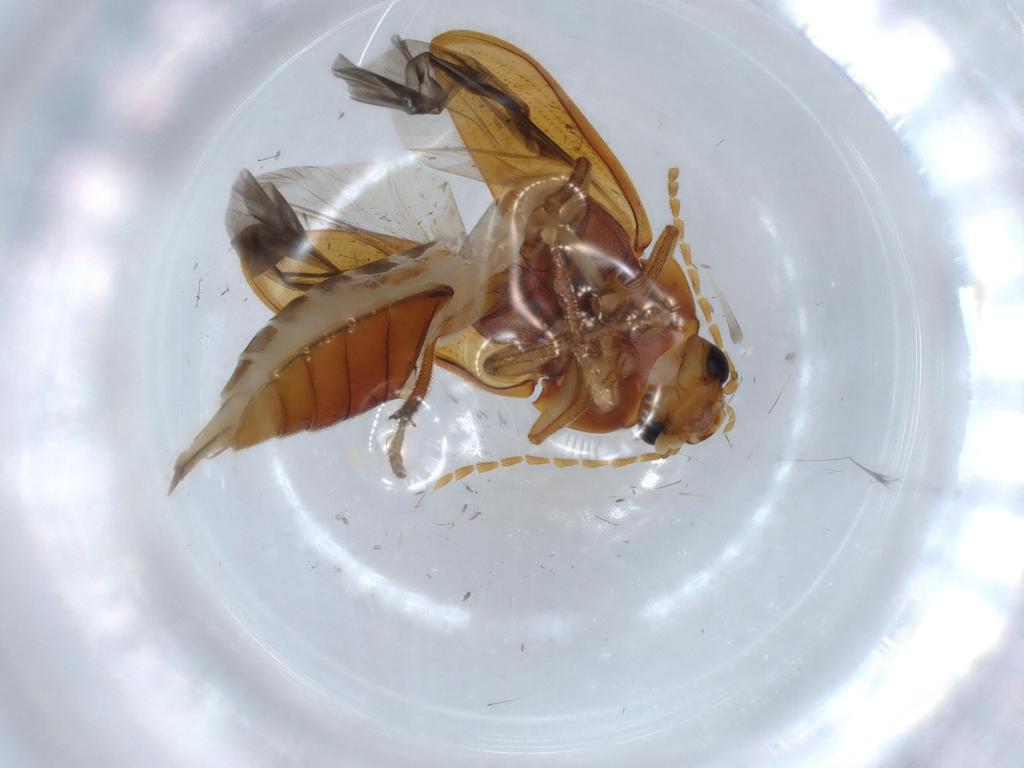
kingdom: Animalia
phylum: Arthropoda
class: Insecta
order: Coleoptera
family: Ptilodactylidae
